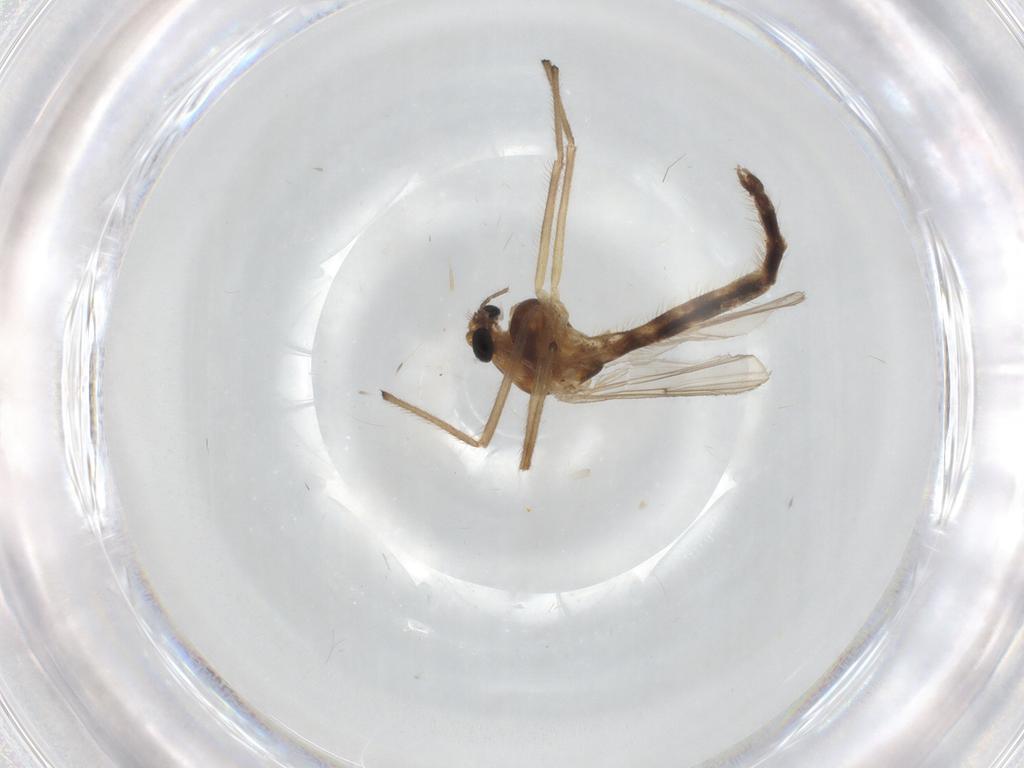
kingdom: Animalia
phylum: Arthropoda
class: Insecta
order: Diptera
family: Chironomidae
